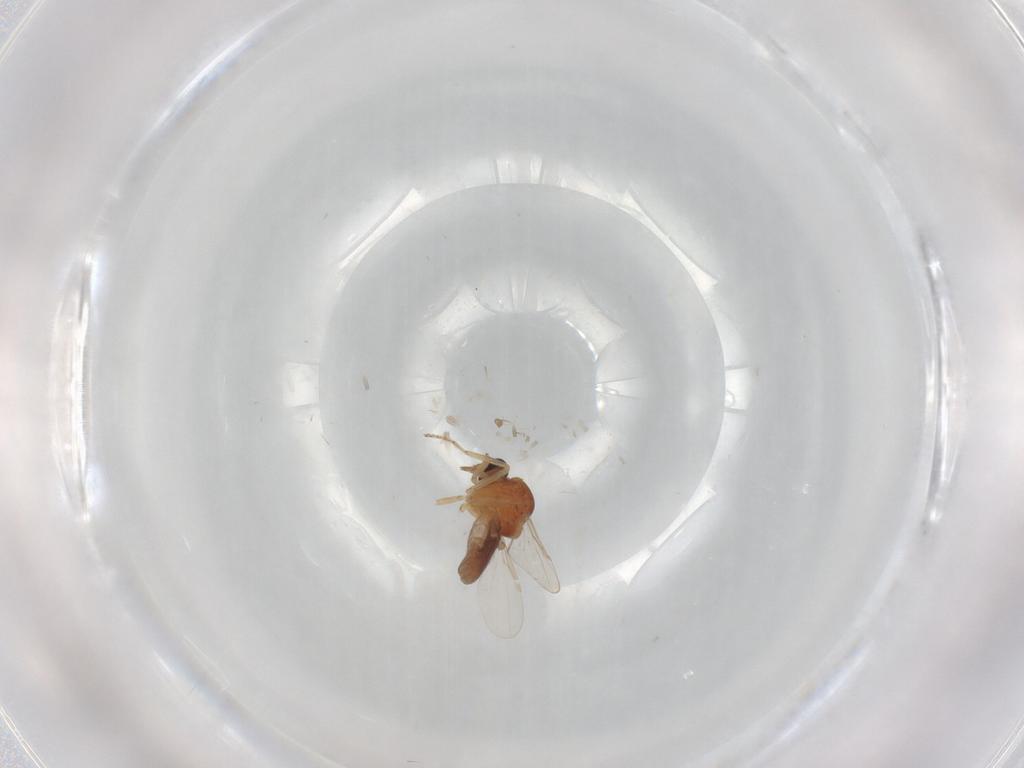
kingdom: Animalia
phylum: Arthropoda
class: Insecta
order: Diptera
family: Ceratopogonidae
